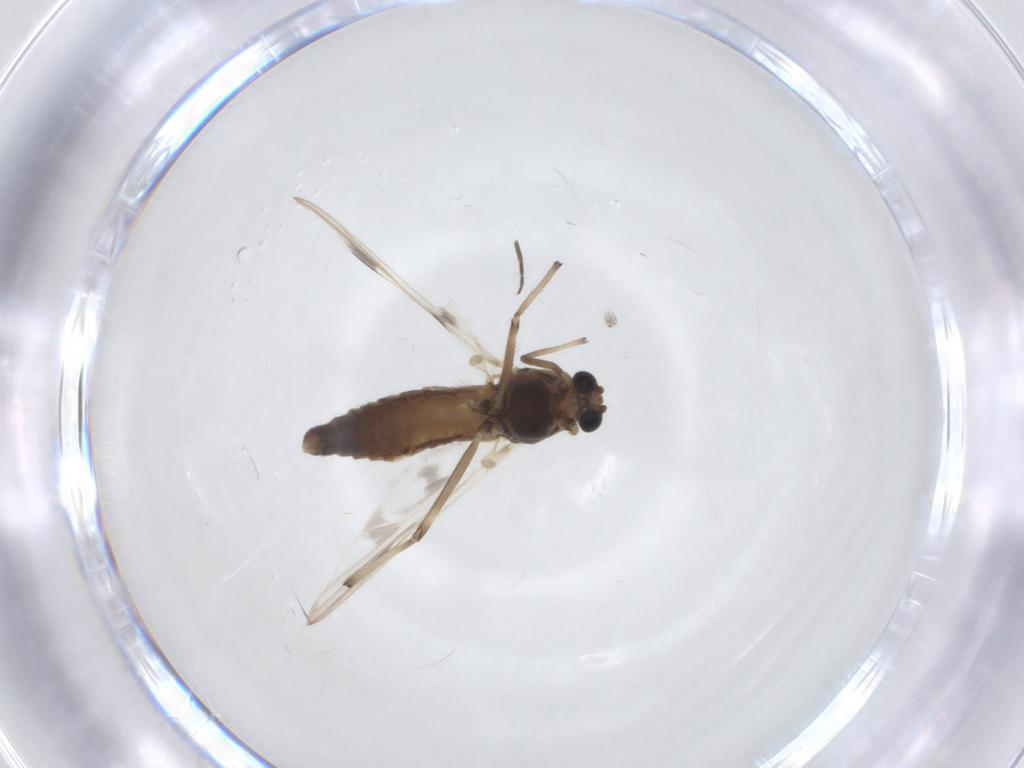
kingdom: Animalia
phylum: Arthropoda
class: Insecta
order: Diptera
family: Chironomidae
